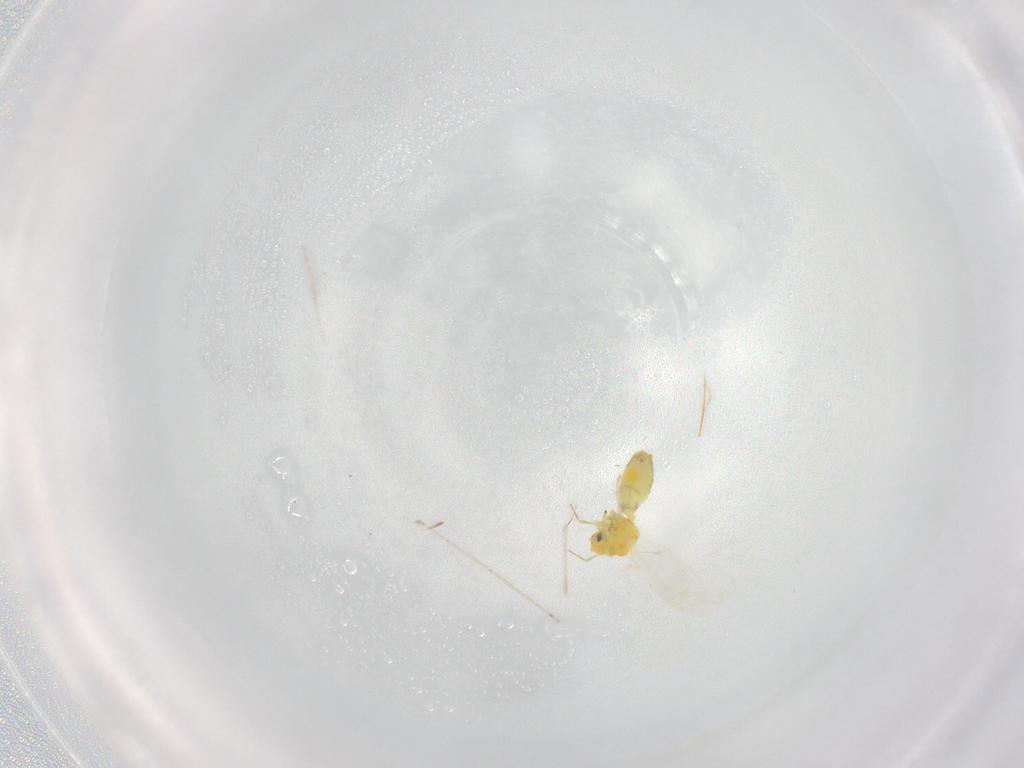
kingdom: Animalia
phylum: Arthropoda
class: Insecta
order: Hemiptera
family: Aleyrodidae
